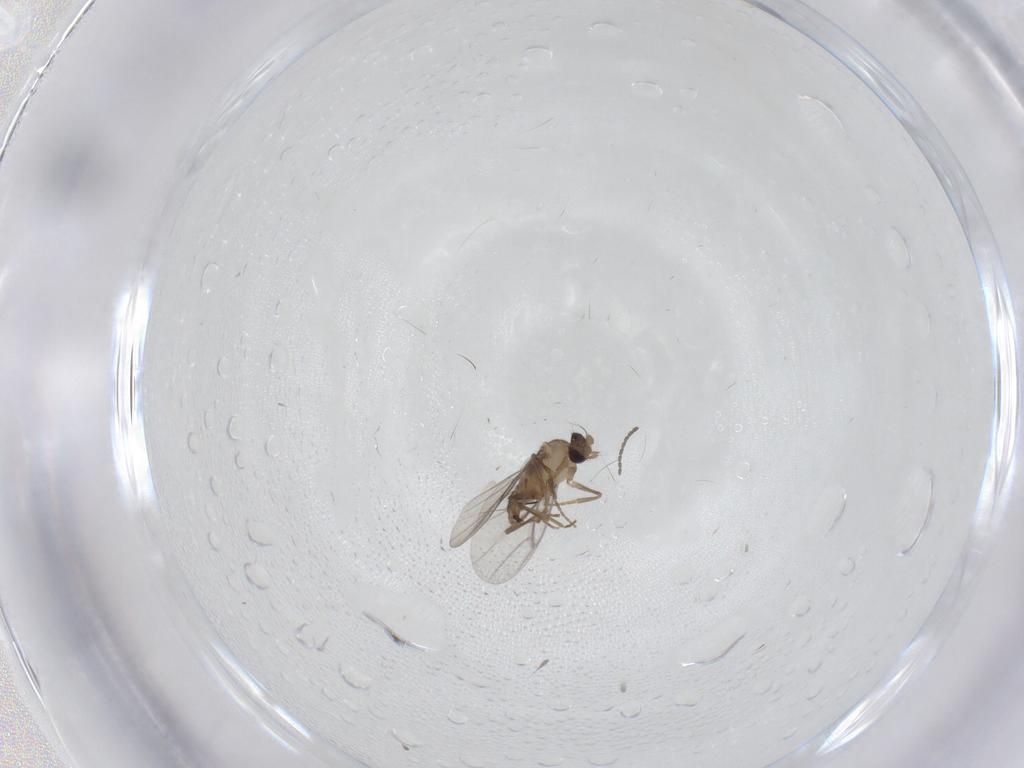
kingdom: Animalia
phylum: Arthropoda
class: Insecta
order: Diptera
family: Cecidomyiidae
